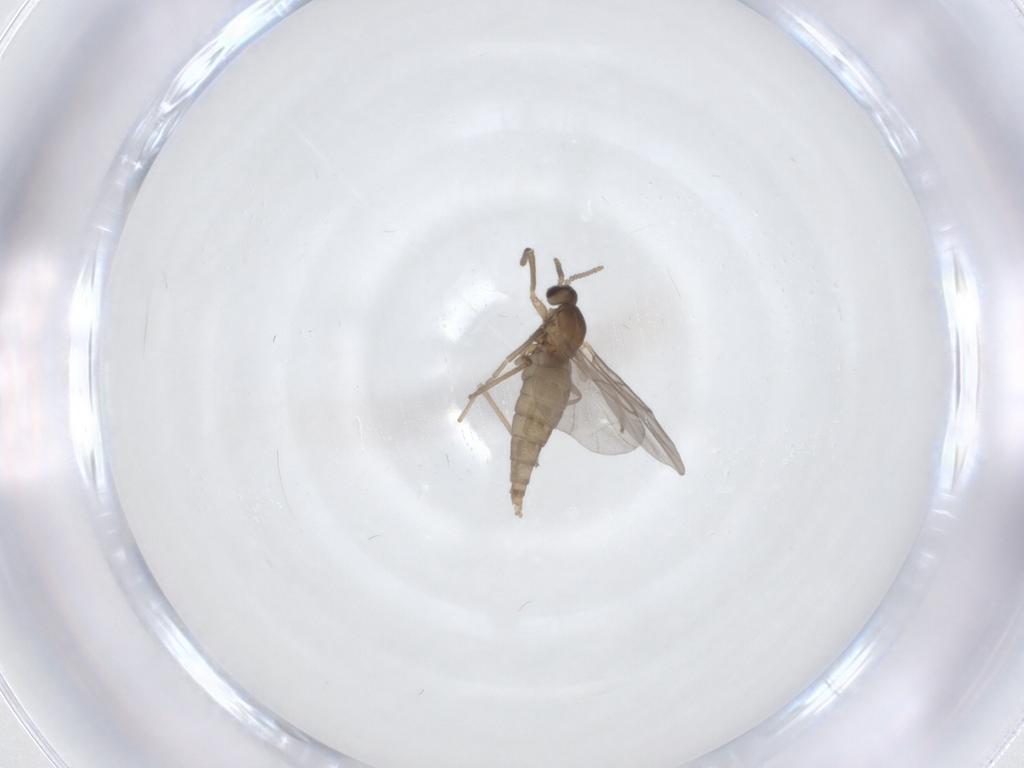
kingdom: Animalia
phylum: Arthropoda
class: Insecta
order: Diptera
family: Cecidomyiidae
